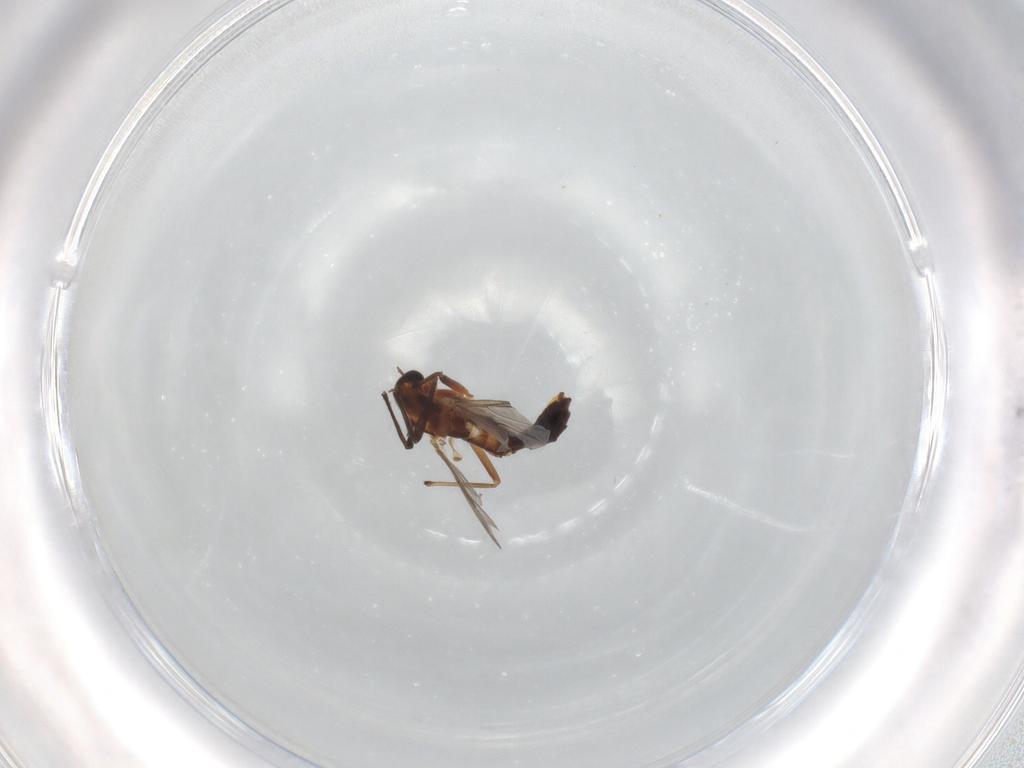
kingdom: Animalia
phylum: Arthropoda
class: Insecta
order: Diptera
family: Chironomidae
